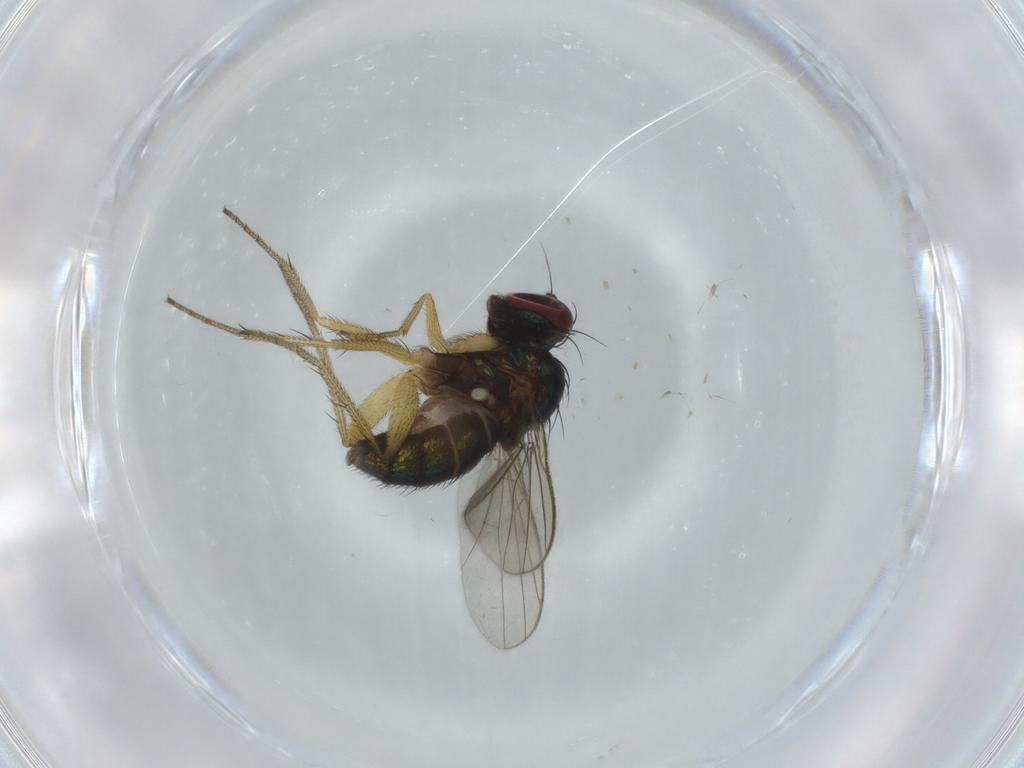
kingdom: Animalia
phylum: Arthropoda
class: Insecta
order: Diptera
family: Dolichopodidae
